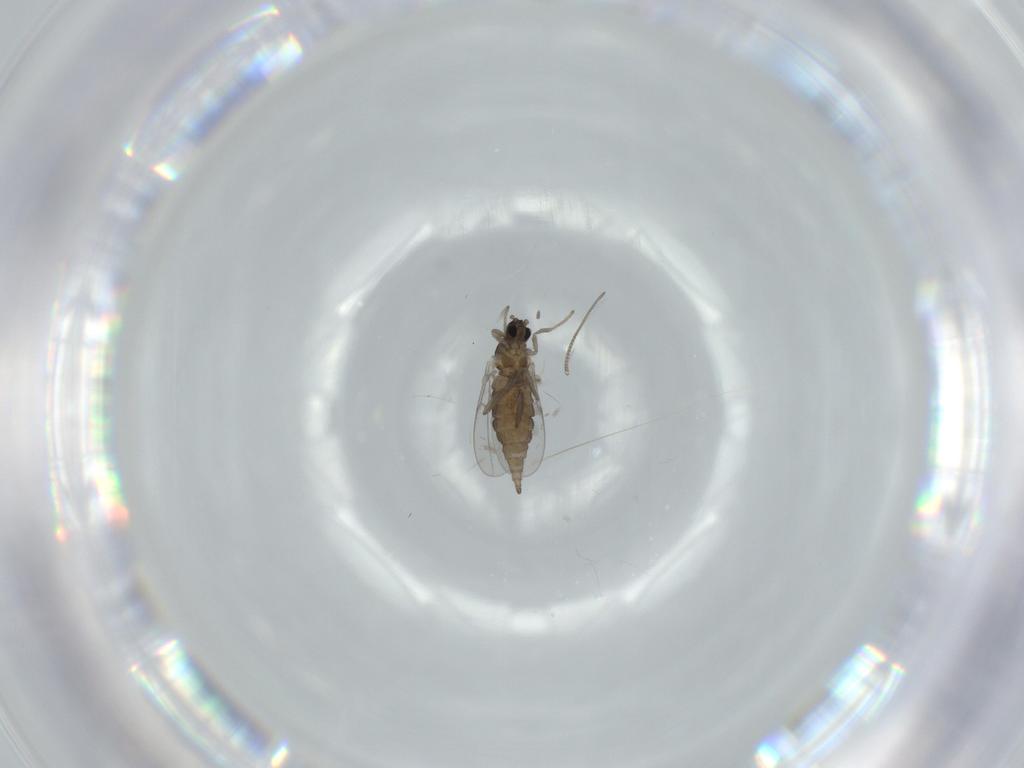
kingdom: Animalia
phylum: Arthropoda
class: Insecta
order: Diptera
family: Cecidomyiidae
